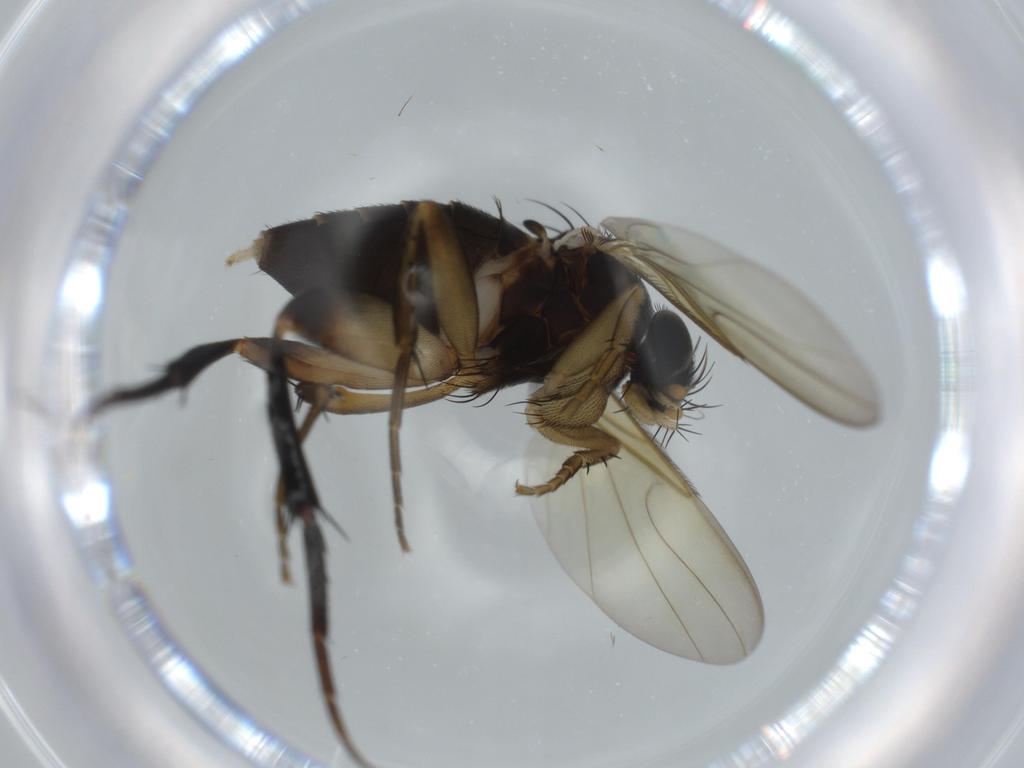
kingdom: Animalia
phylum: Arthropoda
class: Insecta
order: Diptera
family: Phoridae
